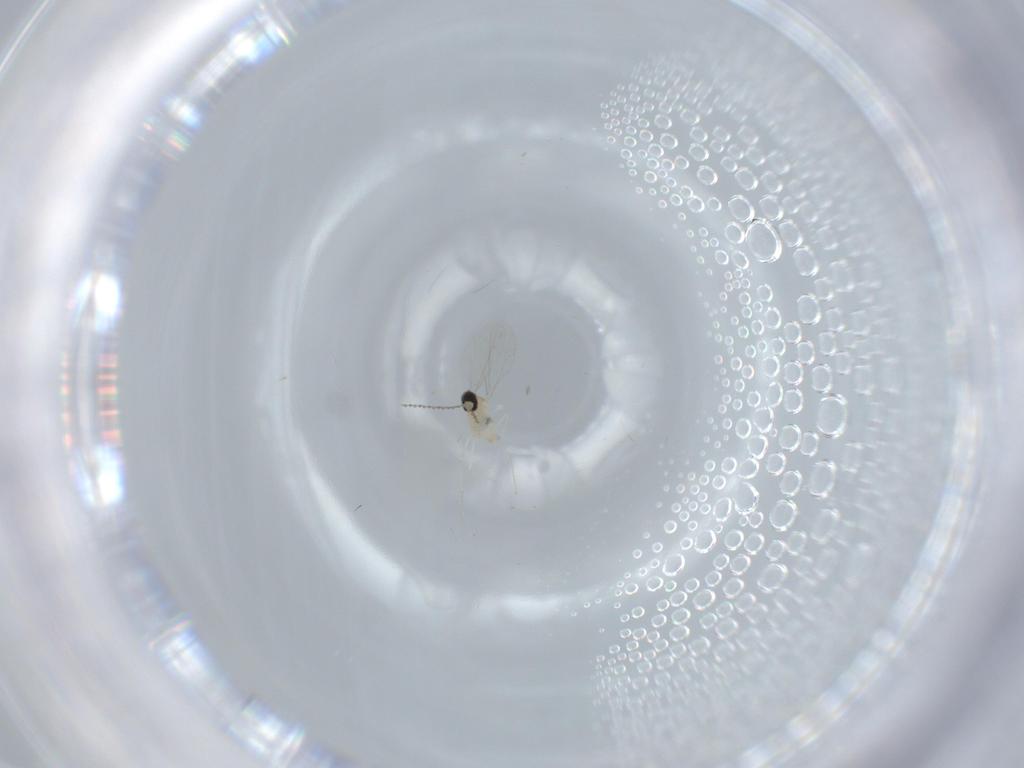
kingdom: Animalia
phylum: Arthropoda
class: Insecta
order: Diptera
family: Cecidomyiidae
